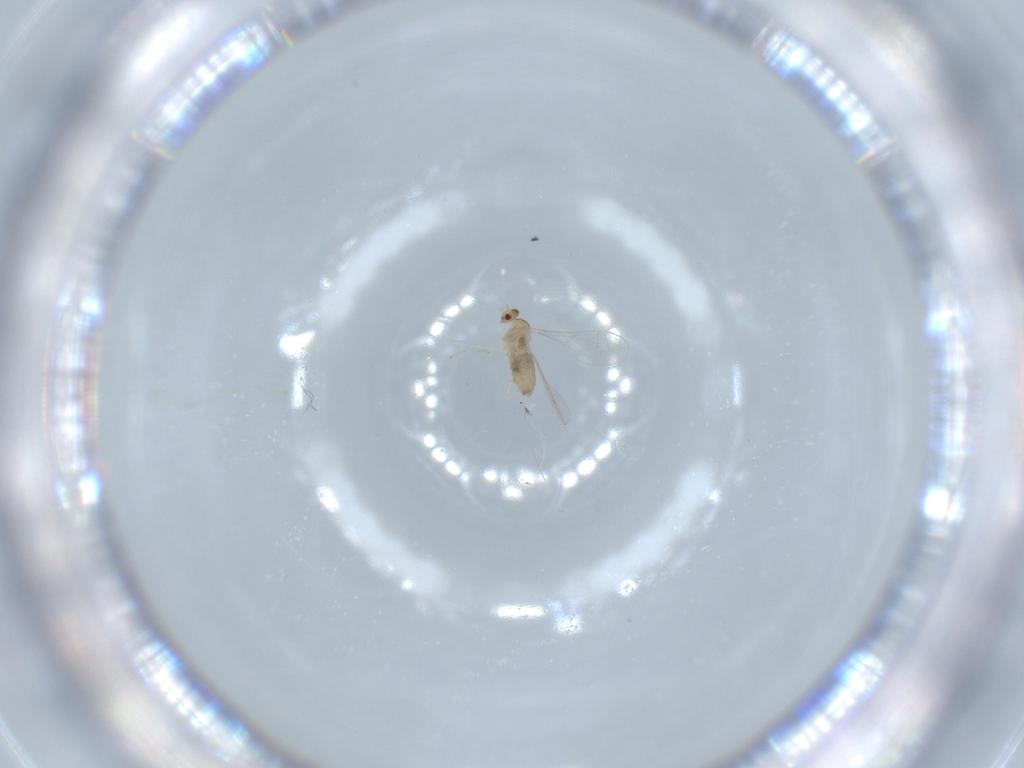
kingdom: Animalia
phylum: Arthropoda
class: Insecta
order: Diptera
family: Cecidomyiidae
